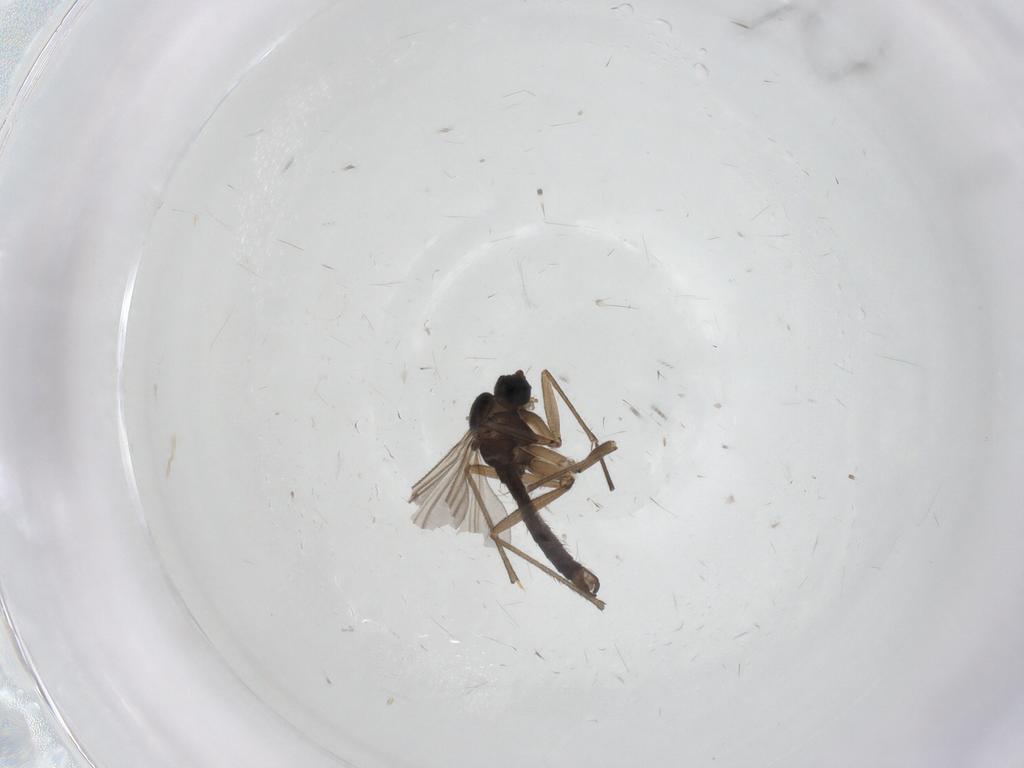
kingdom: Animalia
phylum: Arthropoda
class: Insecta
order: Diptera
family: Sciaridae
